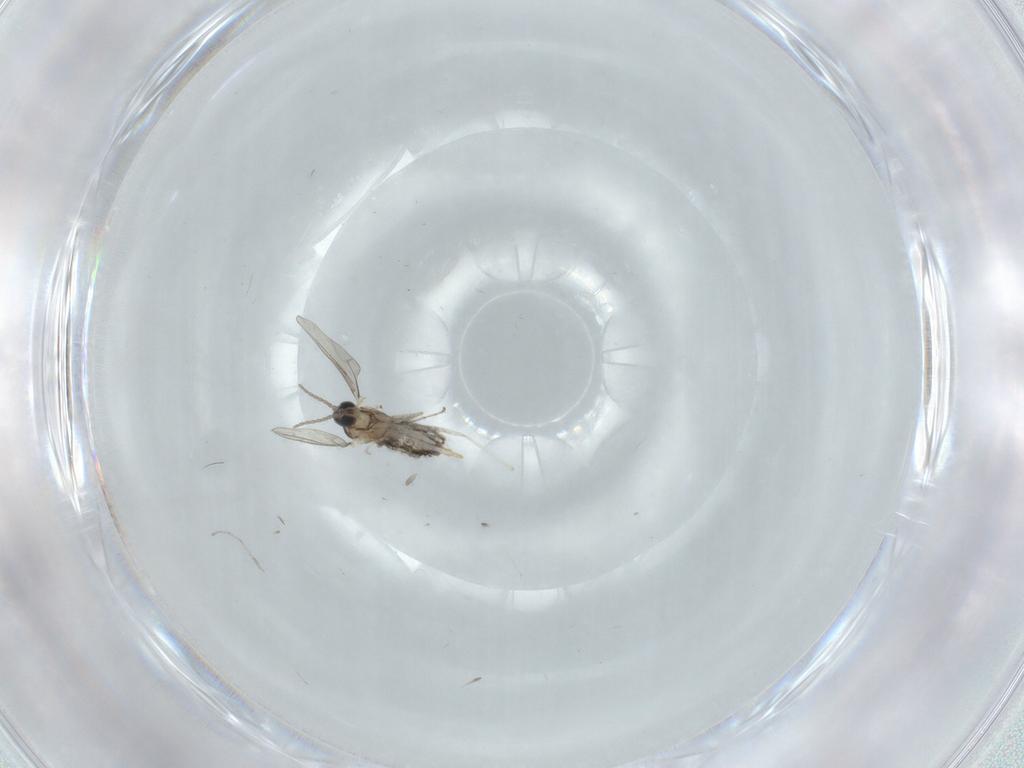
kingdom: Animalia
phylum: Arthropoda
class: Insecta
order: Diptera
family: Cecidomyiidae
